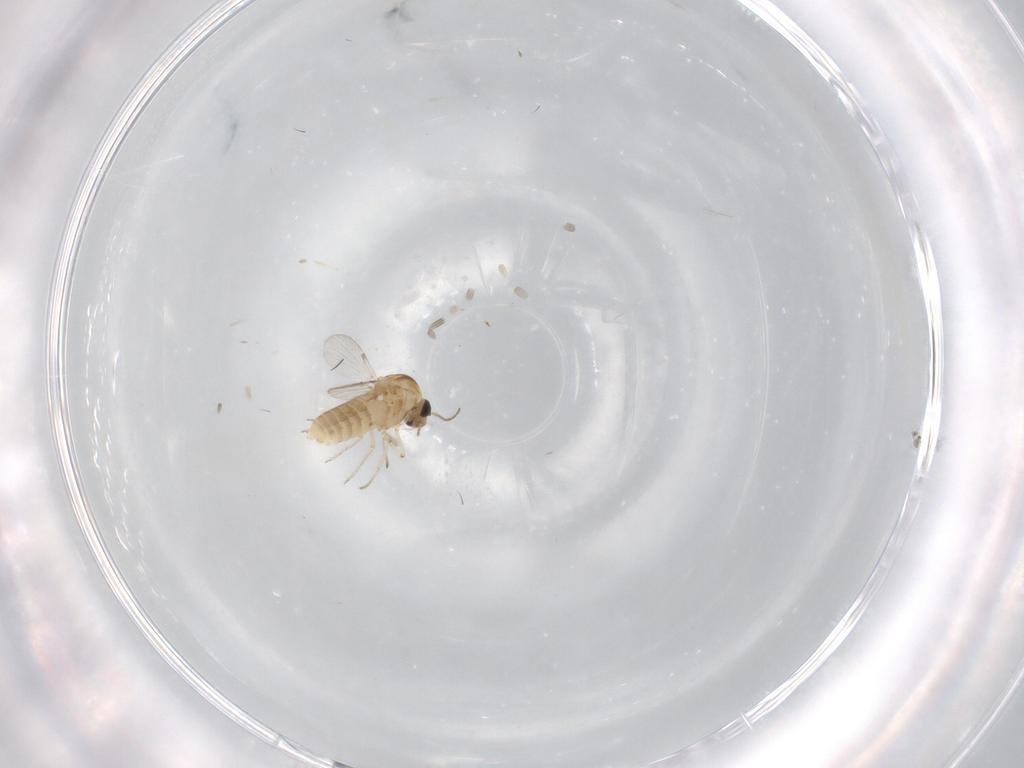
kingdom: Animalia
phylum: Arthropoda
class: Insecta
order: Diptera
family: Ceratopogonidae
